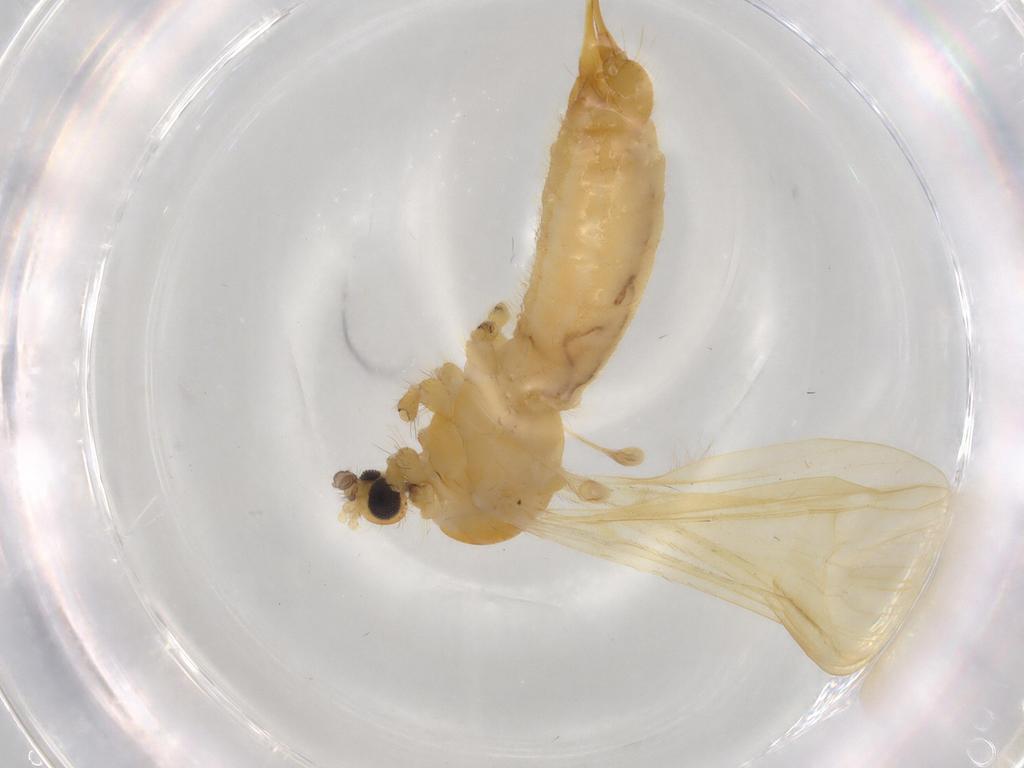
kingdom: Animalia
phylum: Arthropoda
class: Insecta
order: Diptera
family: Limoniidae
